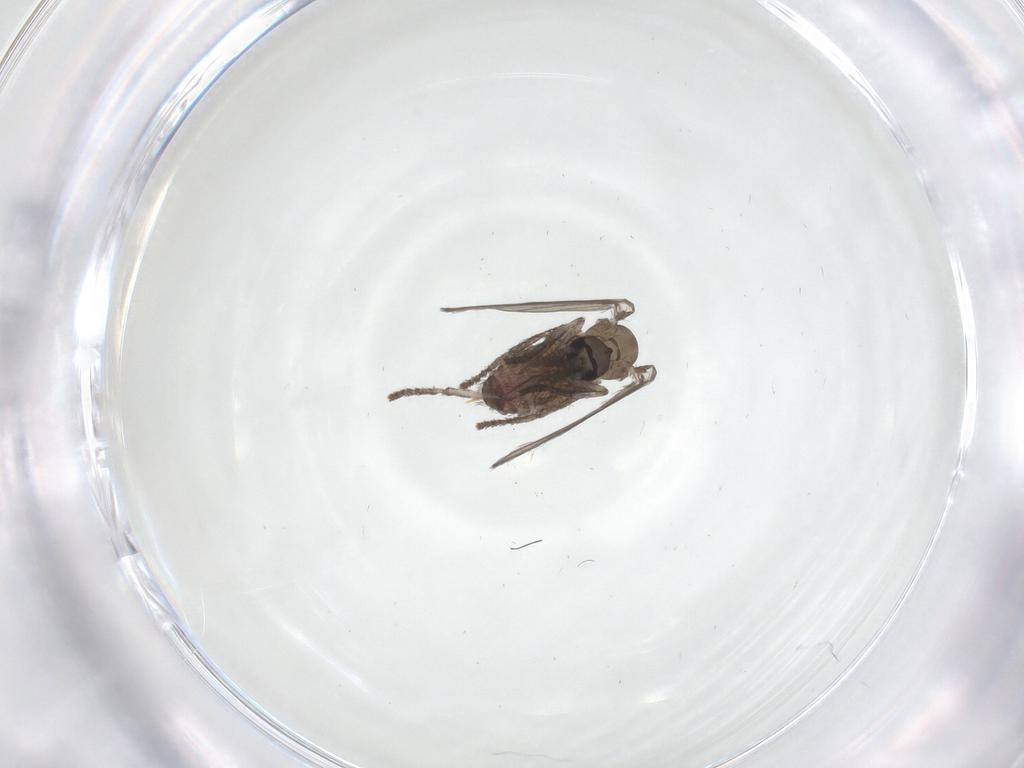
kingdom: Animalia
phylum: Arthropoda
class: Insecta
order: Diptera
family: Psychodidae
